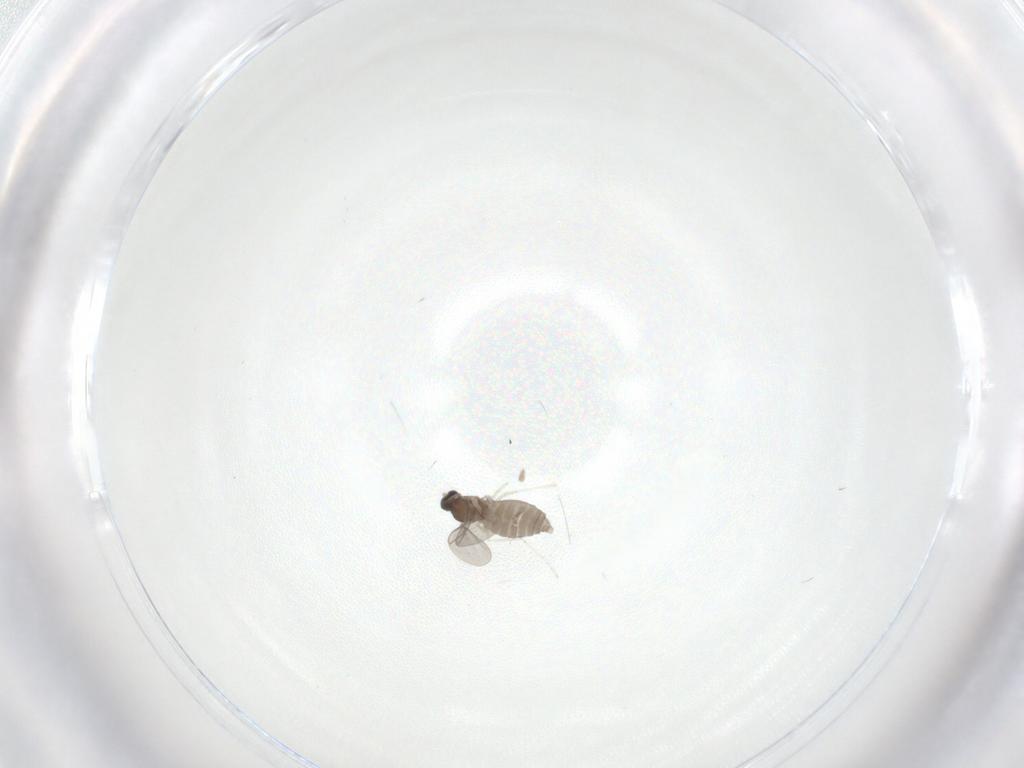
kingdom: Animalia
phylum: Arthropoda
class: Insecta
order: Diptera
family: Cecidomyiidae
